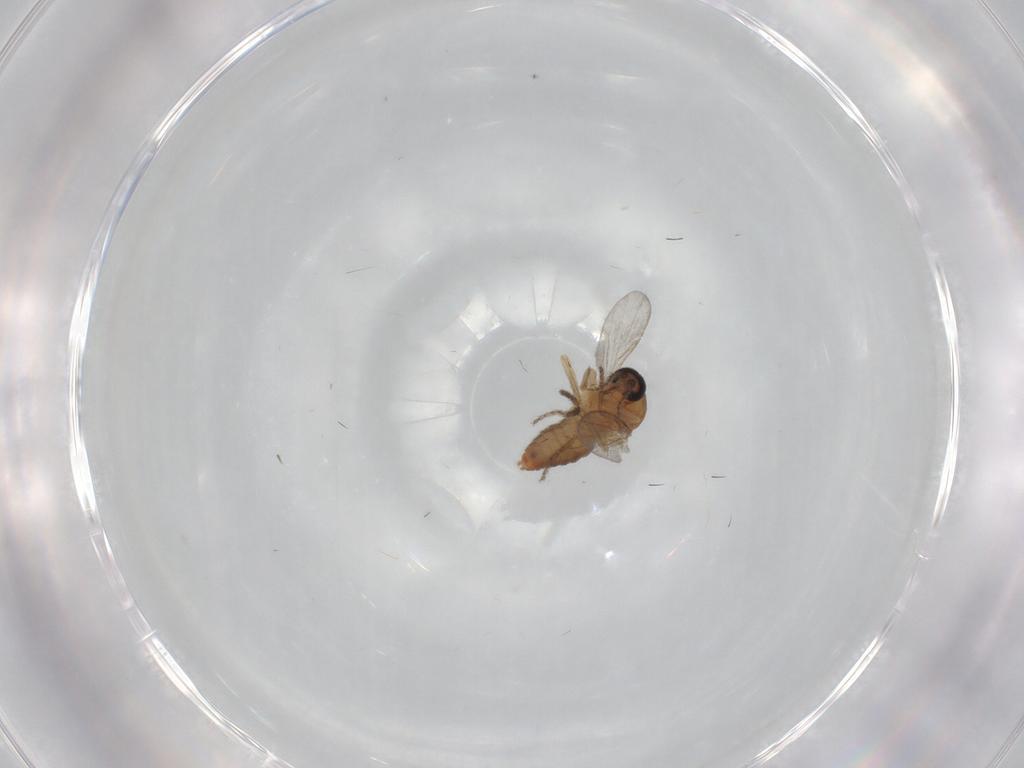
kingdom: Animalia
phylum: Arthropoda
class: Insecta
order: Diptera
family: Ceratopogonidae
